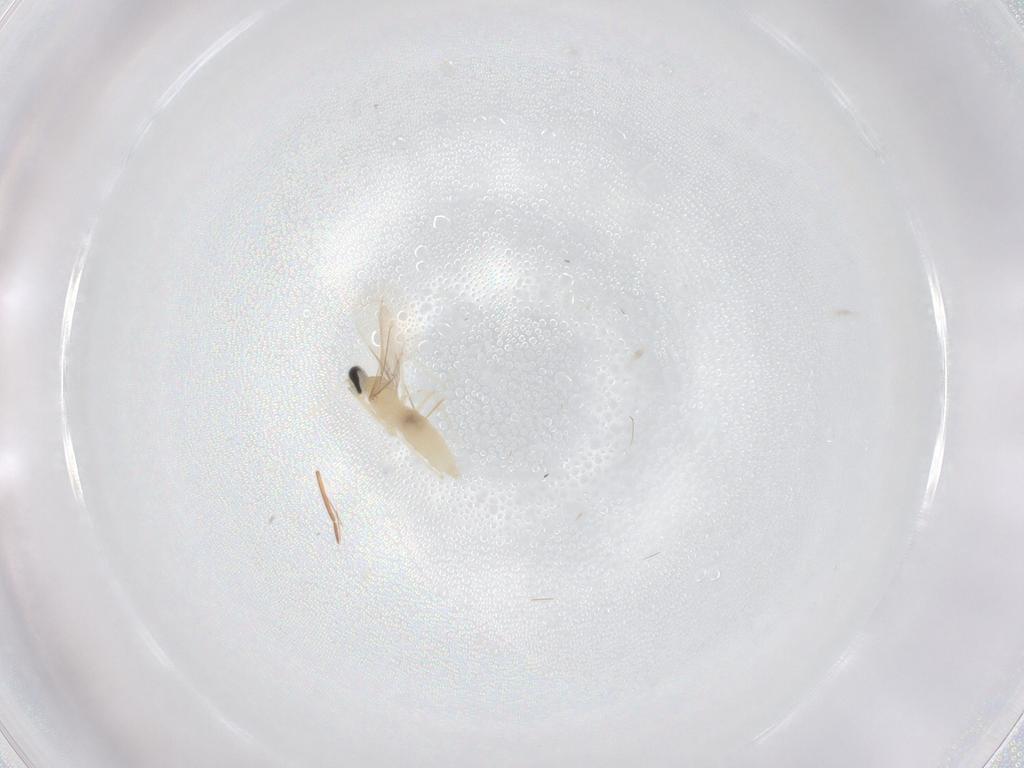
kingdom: Animalia
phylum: Arthropoda
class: Insecta
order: Diptera
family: Cecidomyiidae
